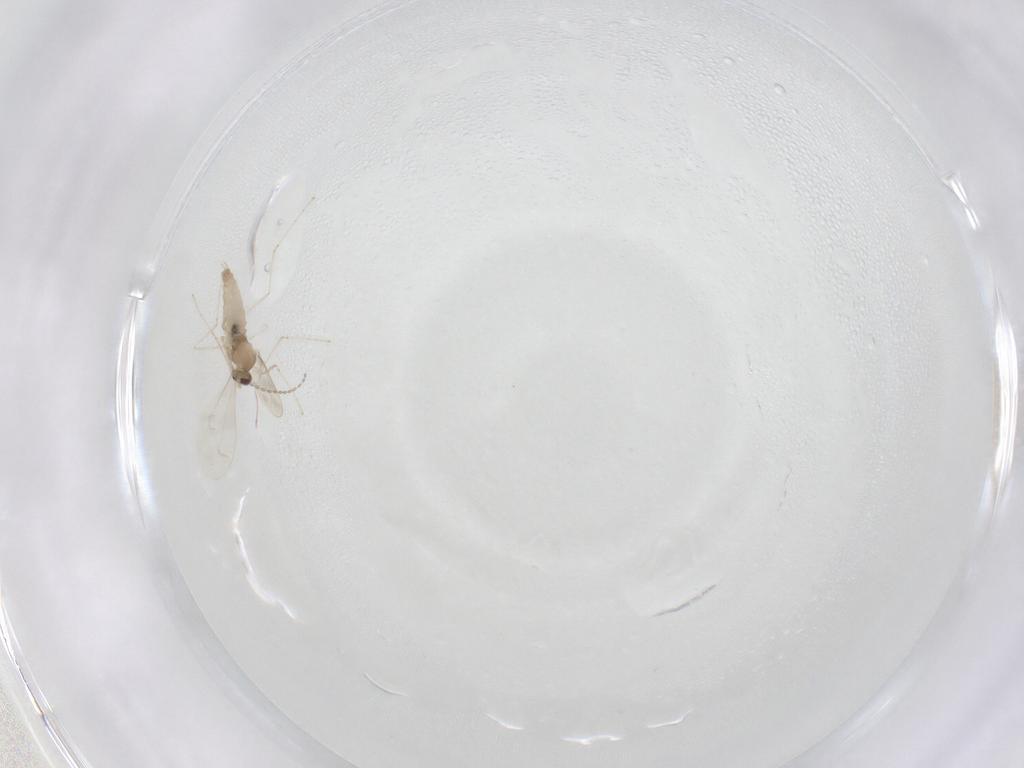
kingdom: Animalia
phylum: Arthropoda
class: Insecta
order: Diptera
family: Cecidomyiidae
